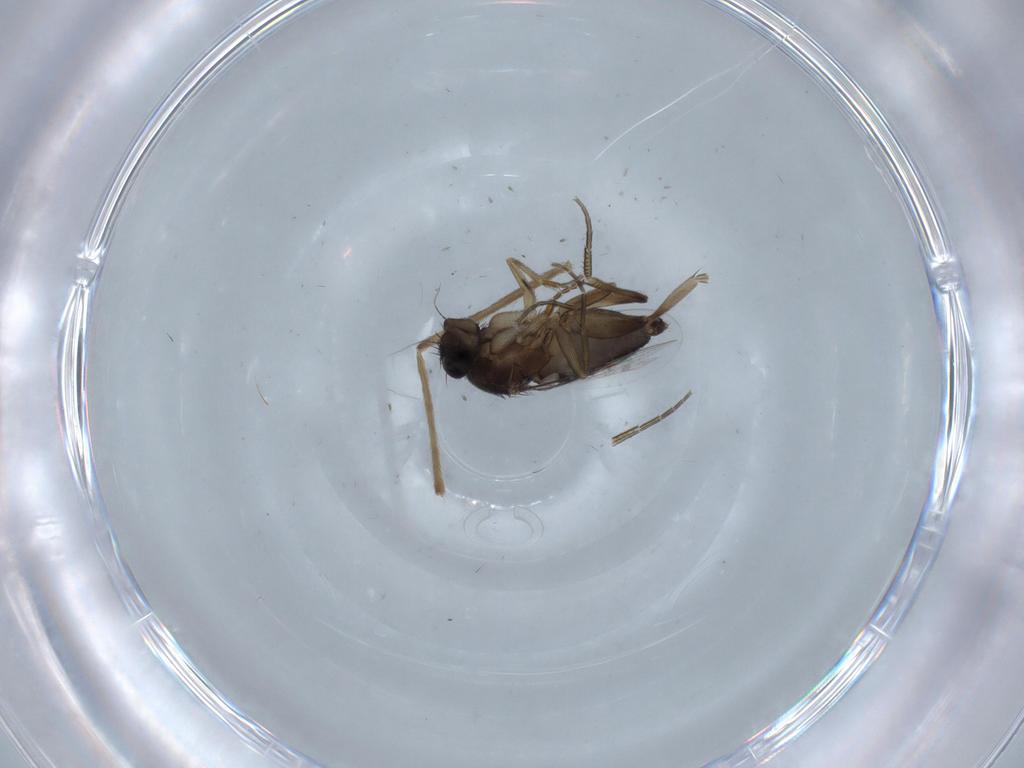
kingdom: Animalia
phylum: Arthropoda
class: Insecta
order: Diptera
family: Phoridae
